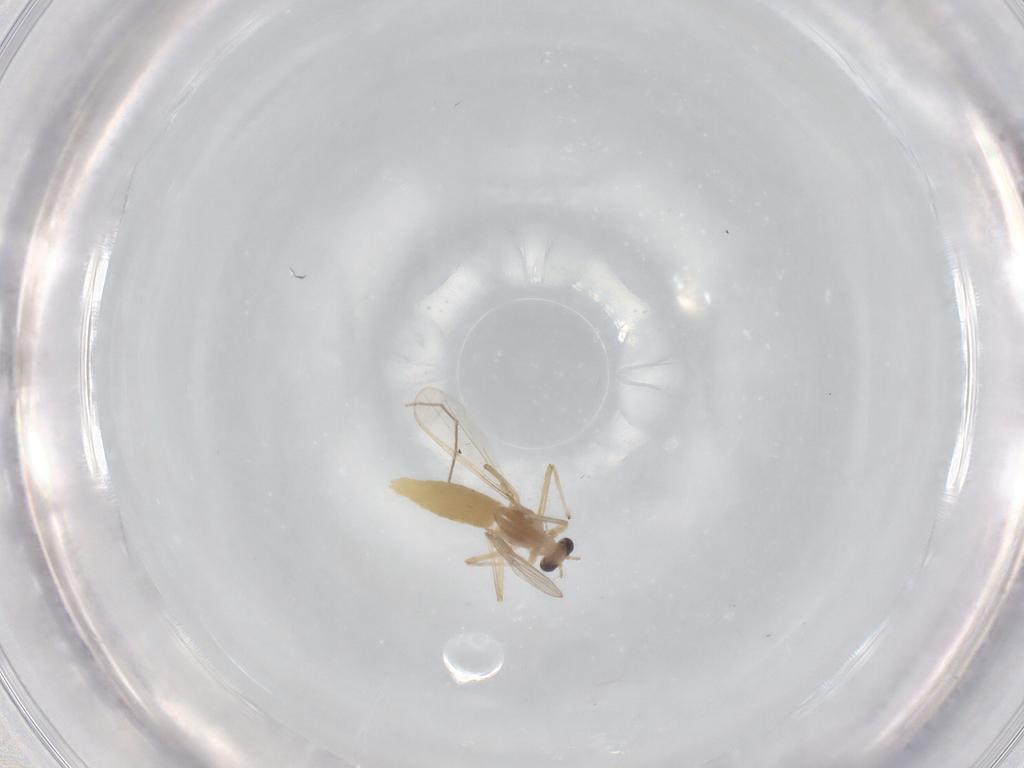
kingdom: Animalia
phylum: Arthropoda
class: Insecta
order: Diptera
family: Chironomidae
